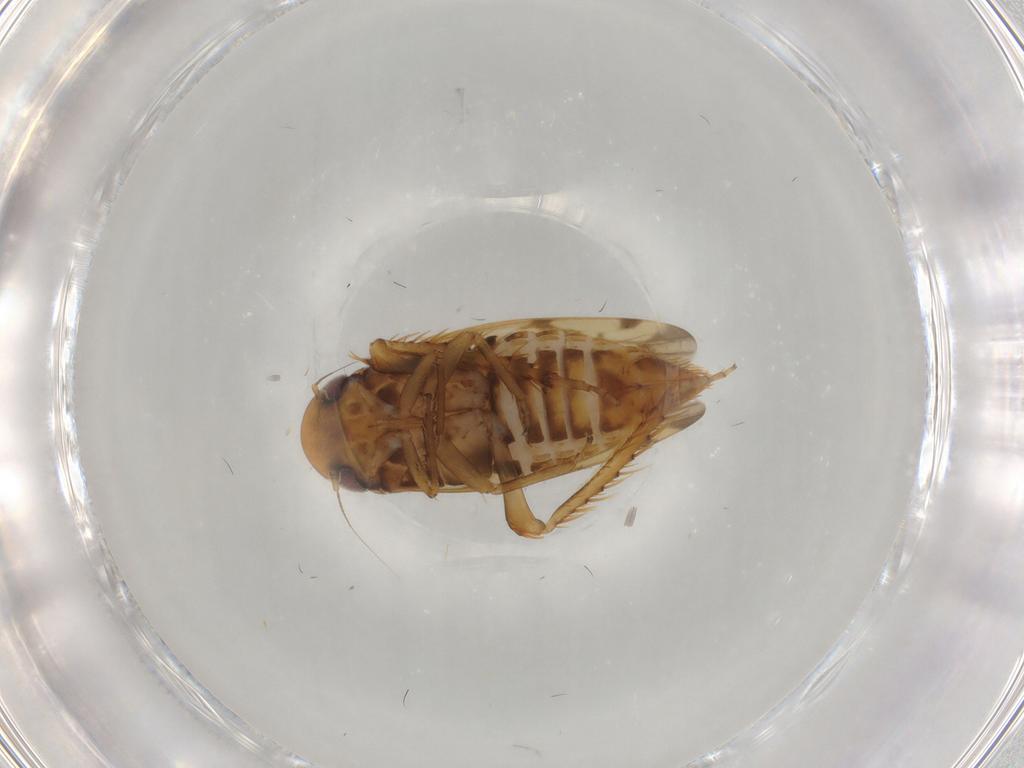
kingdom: Animalia
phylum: Arthropoda
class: Insecta
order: Hemiptera
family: Cicadellidae
